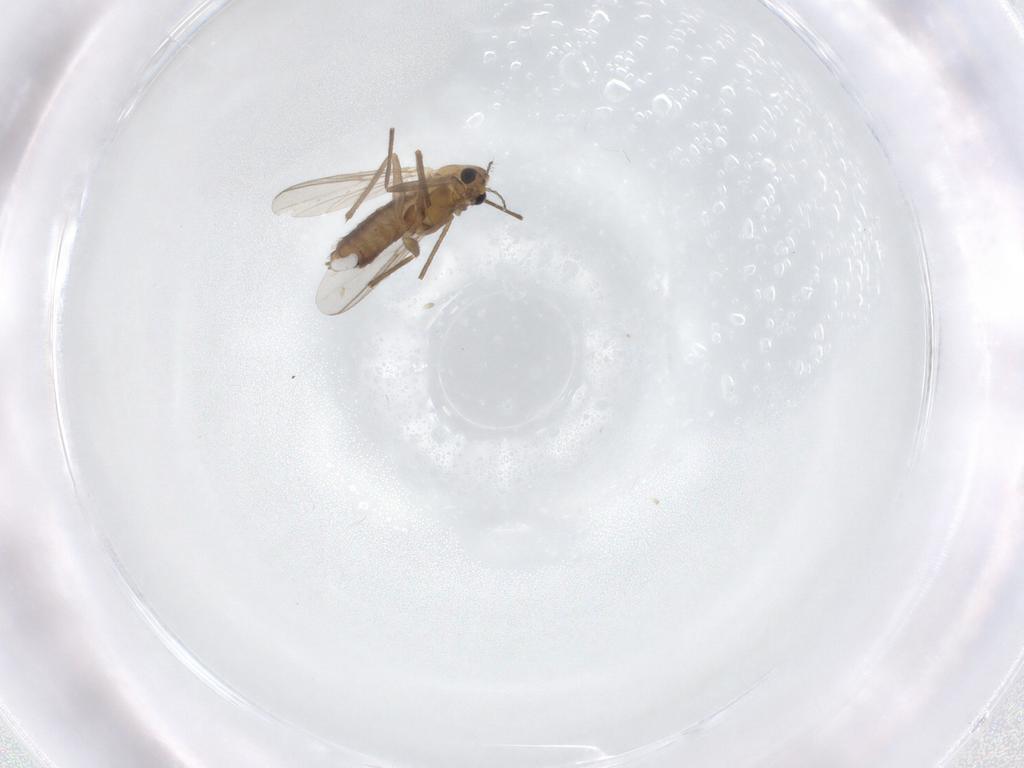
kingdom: Animalia
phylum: Arthropoda
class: Insecta
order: Diptera
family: Chironomidae
